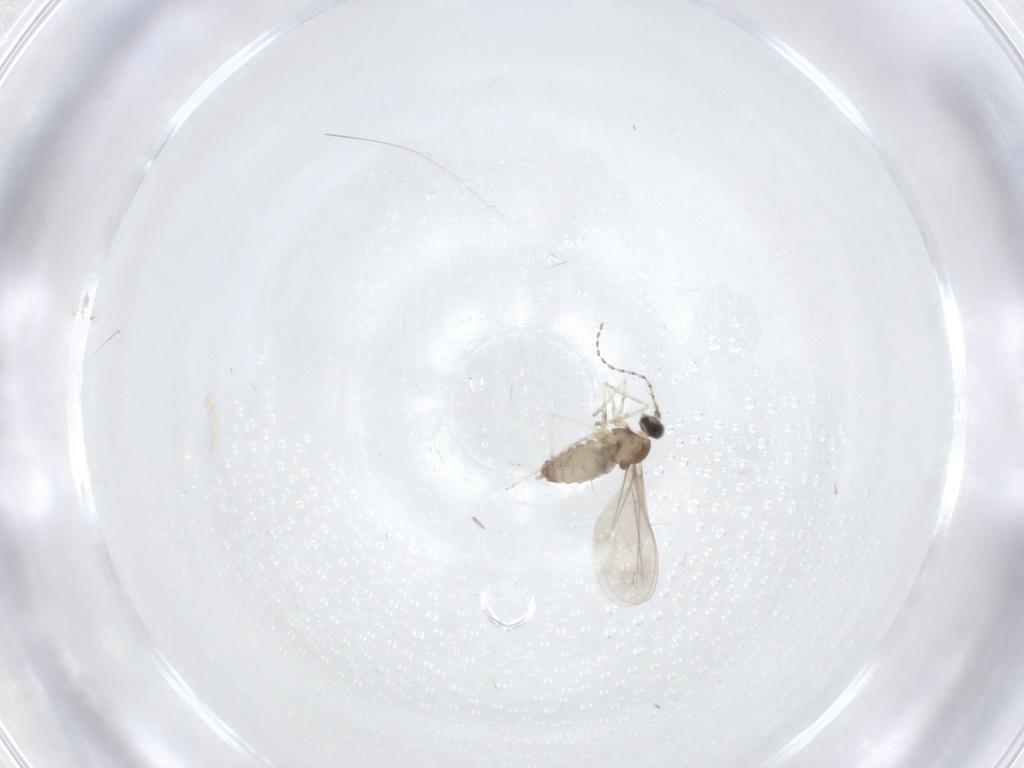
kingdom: Animalia
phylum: Arthropoda
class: Insecta
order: Diptera
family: Cecidomyiidae
